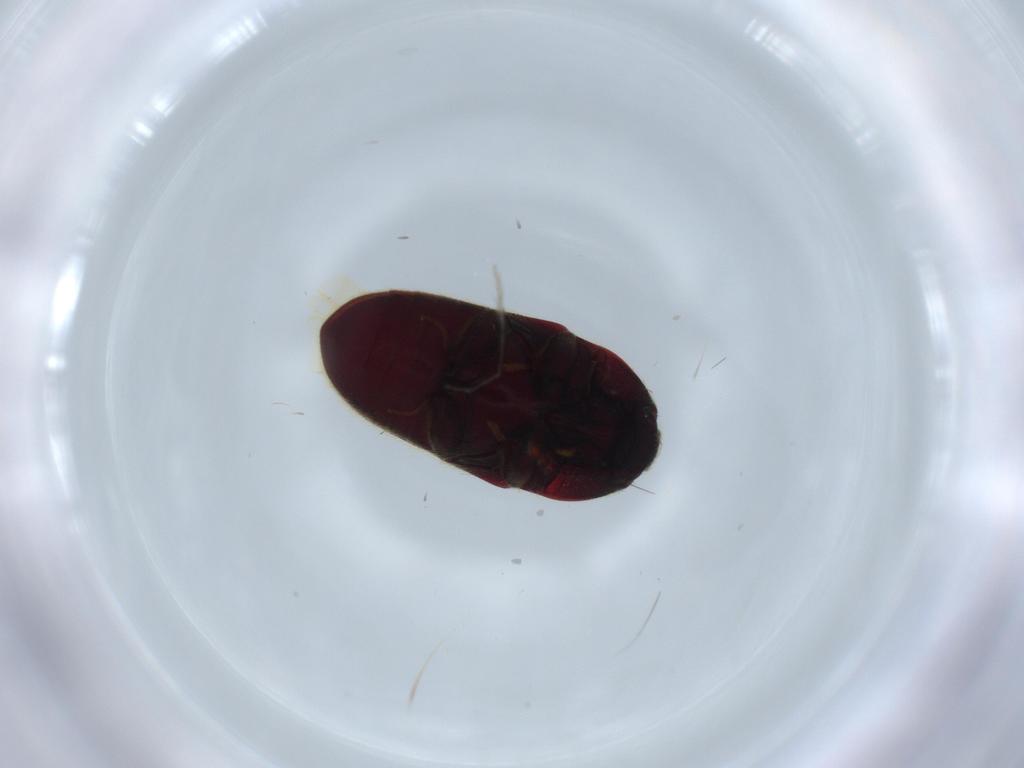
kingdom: Animalia
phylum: Arthropoda
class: Insecta
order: Coleoptera
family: Throscidae
